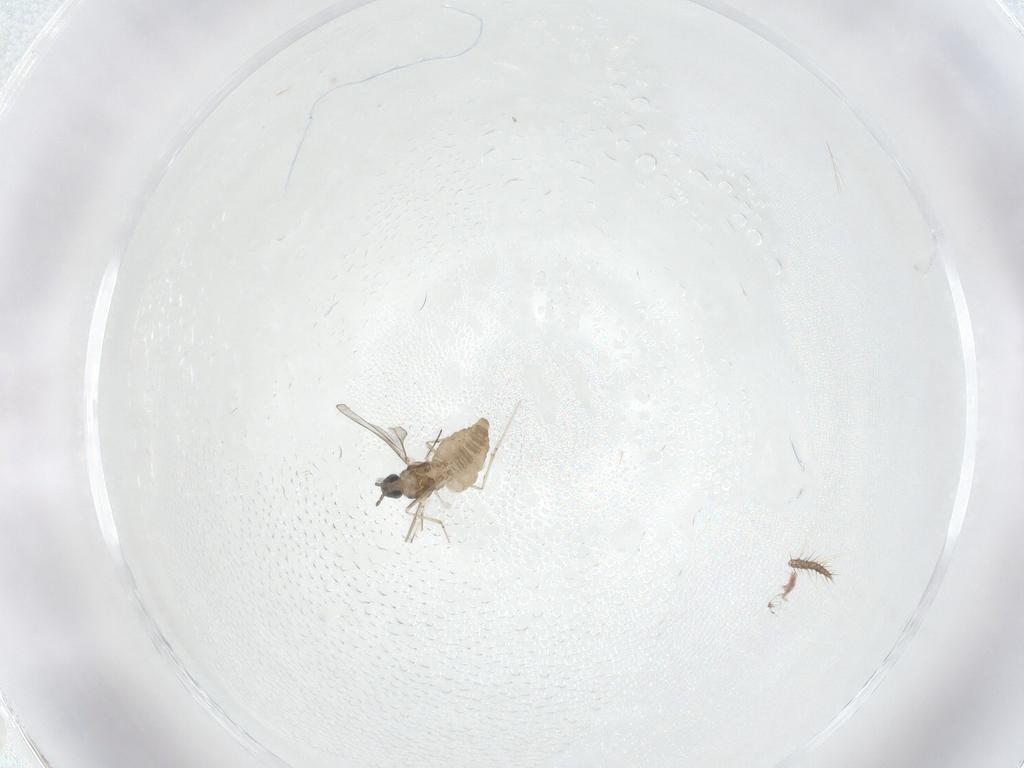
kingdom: Animalia
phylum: Arthropoda
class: Insecta
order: Diptera
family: Cecidomyiidae
